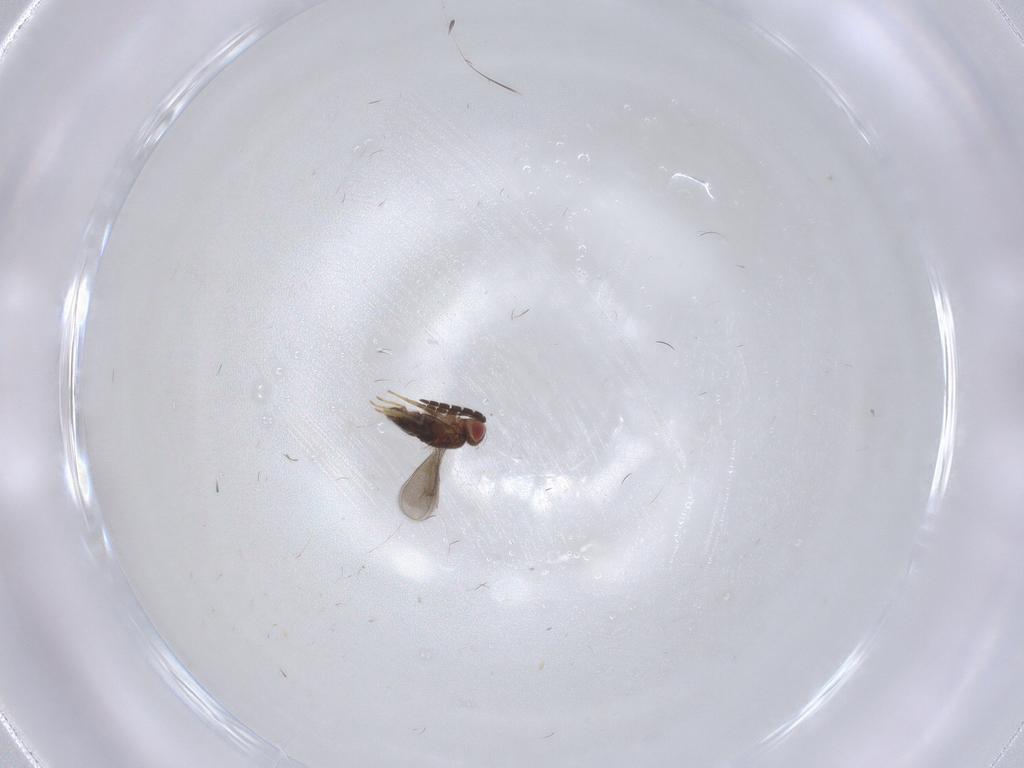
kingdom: Animalia
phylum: Arthropoda
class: Insecta
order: Hymenoptera
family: Aphelinidae
